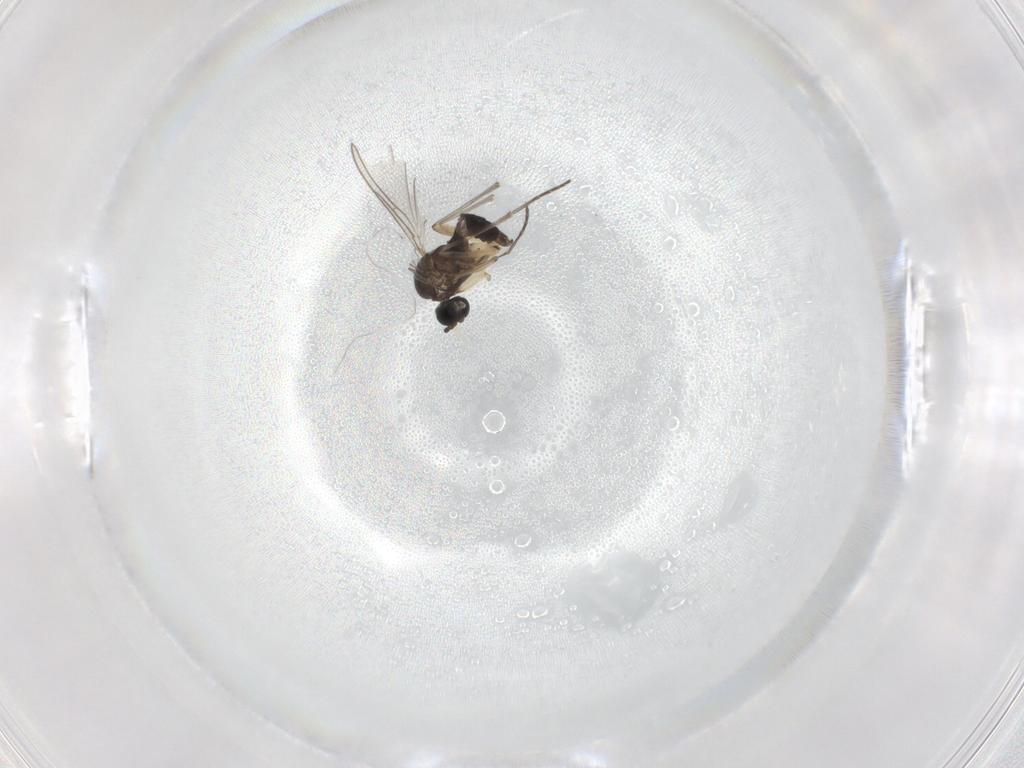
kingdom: Animalia
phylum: Arthropoda
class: Insecta
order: Diptera
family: Sciaridae
